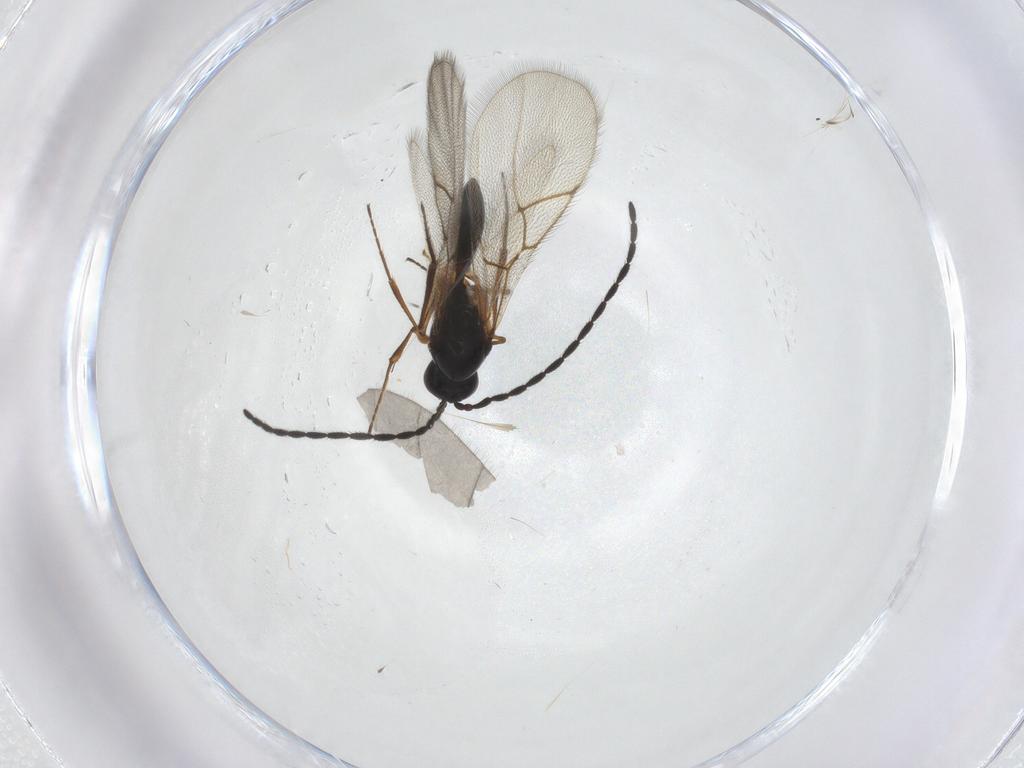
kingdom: Animalia
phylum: Arthropoda
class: Insecta
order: Hymenoptera
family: Figitidae
